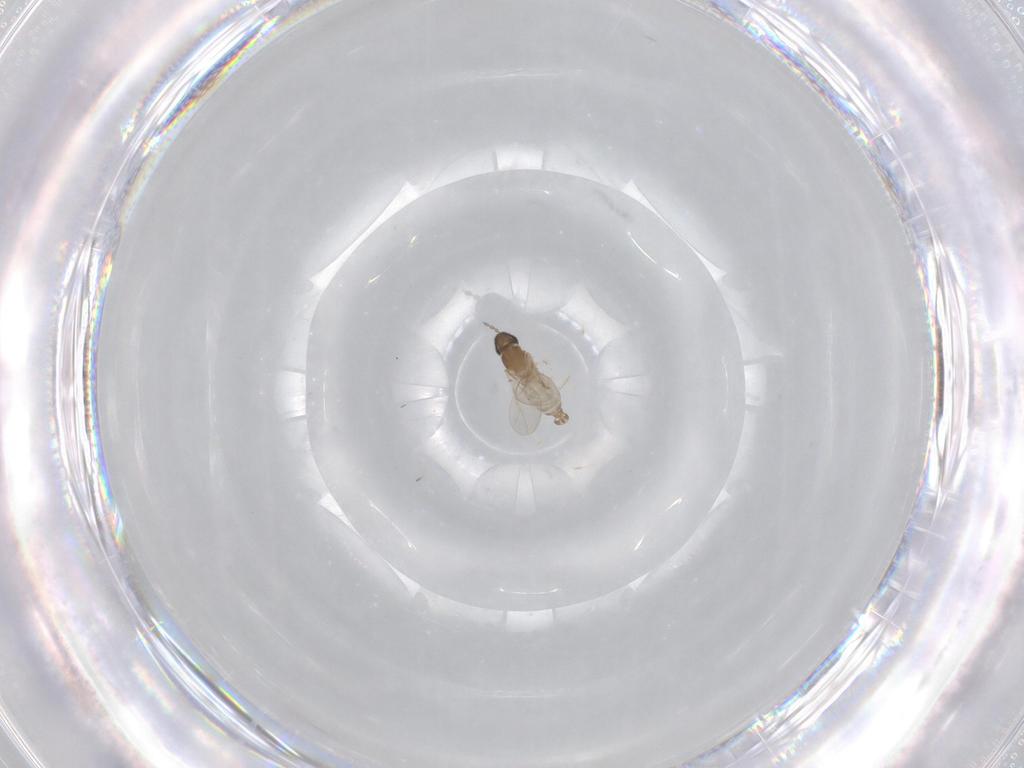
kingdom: Animalia
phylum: Arthropoda
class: Insecta
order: Diptera
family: Cecidomyiidae
